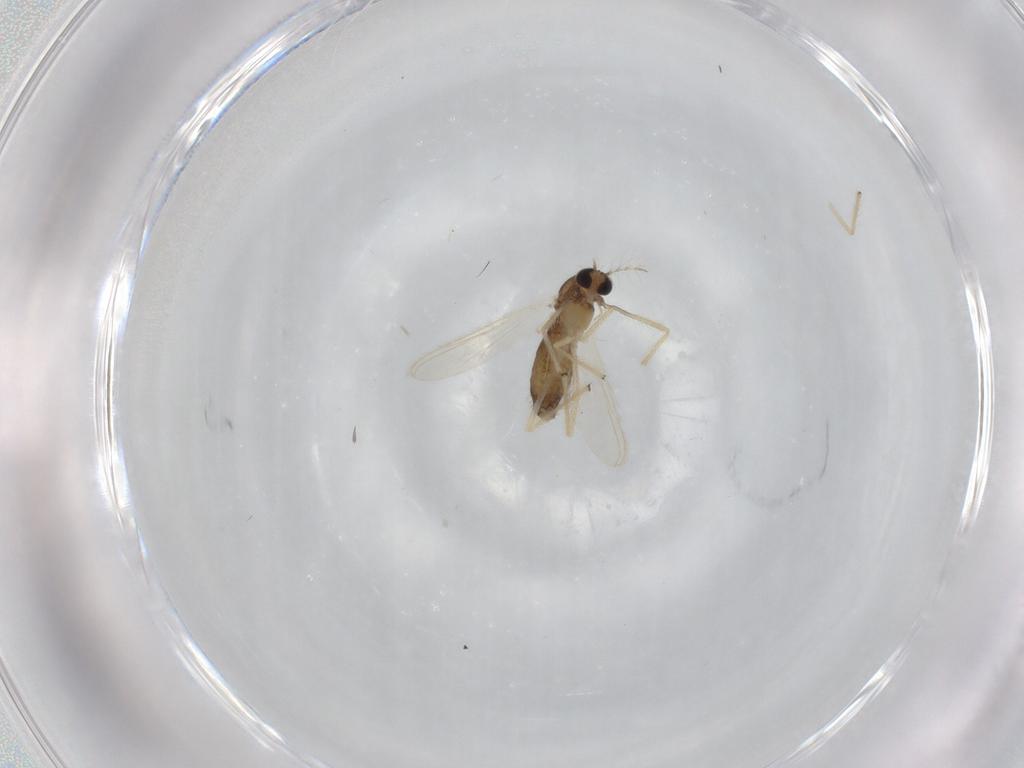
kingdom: Animalia
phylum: Arthropoda
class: Insecta
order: Diptera
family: Chironomidae
